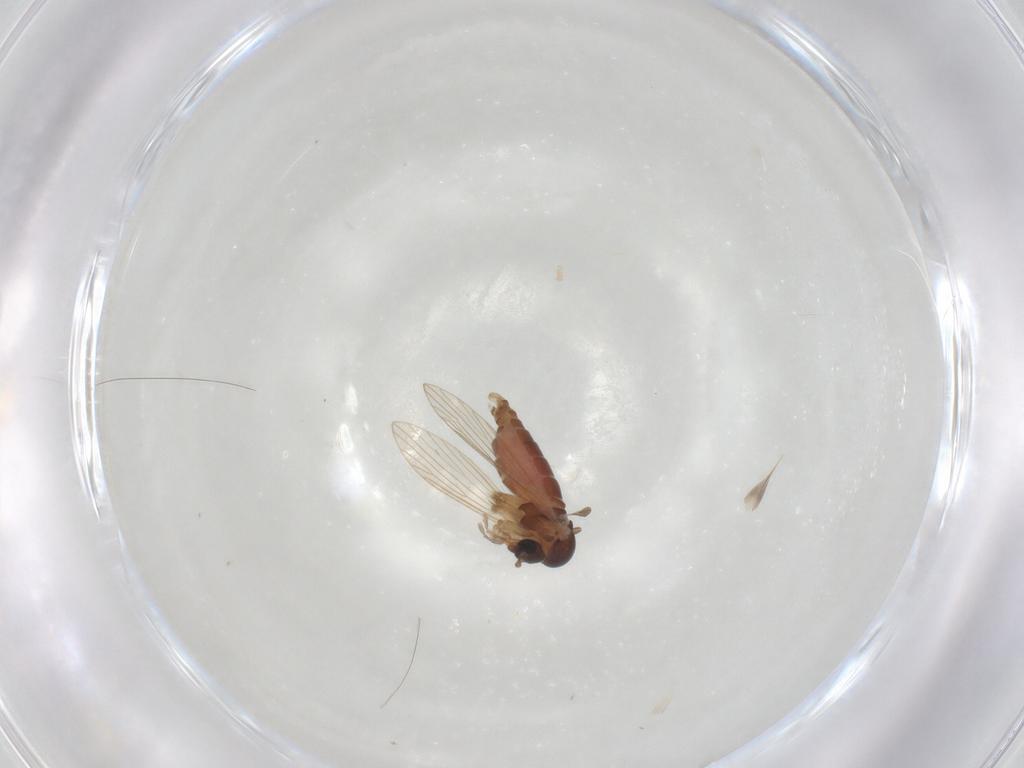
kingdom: Animalia
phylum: Arthropoda
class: Insecta
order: Diptera
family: Psychodidae
